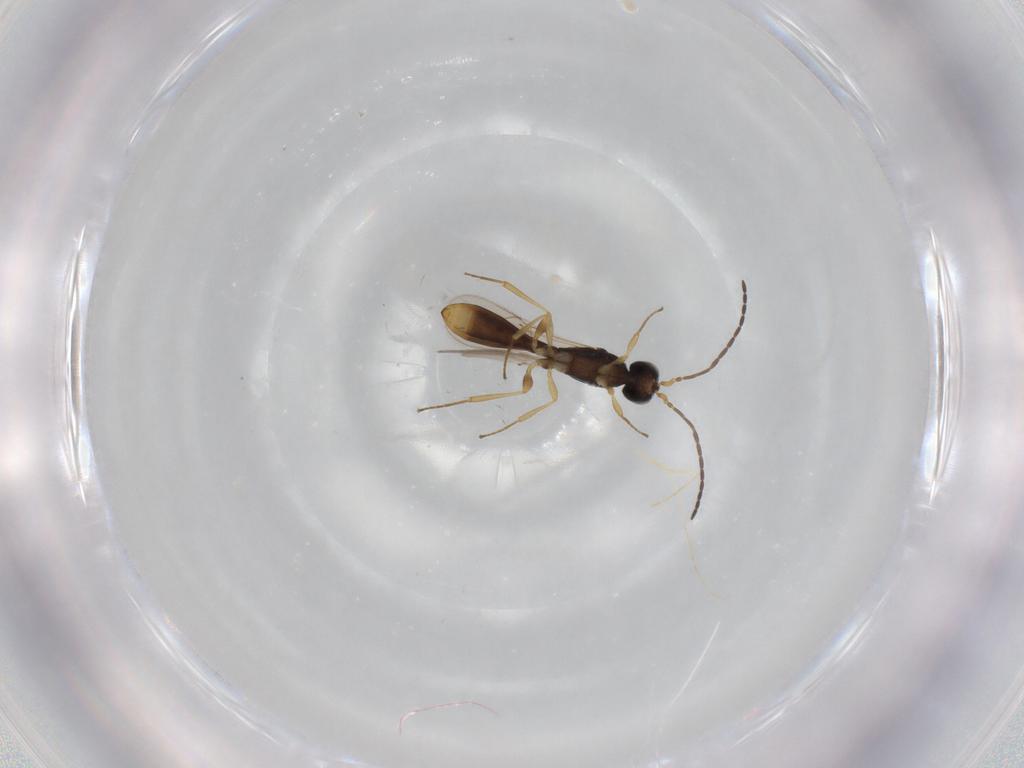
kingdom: Animalia
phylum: Arthropoda
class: Insecta
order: Hymenoptera
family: Scelionidae
